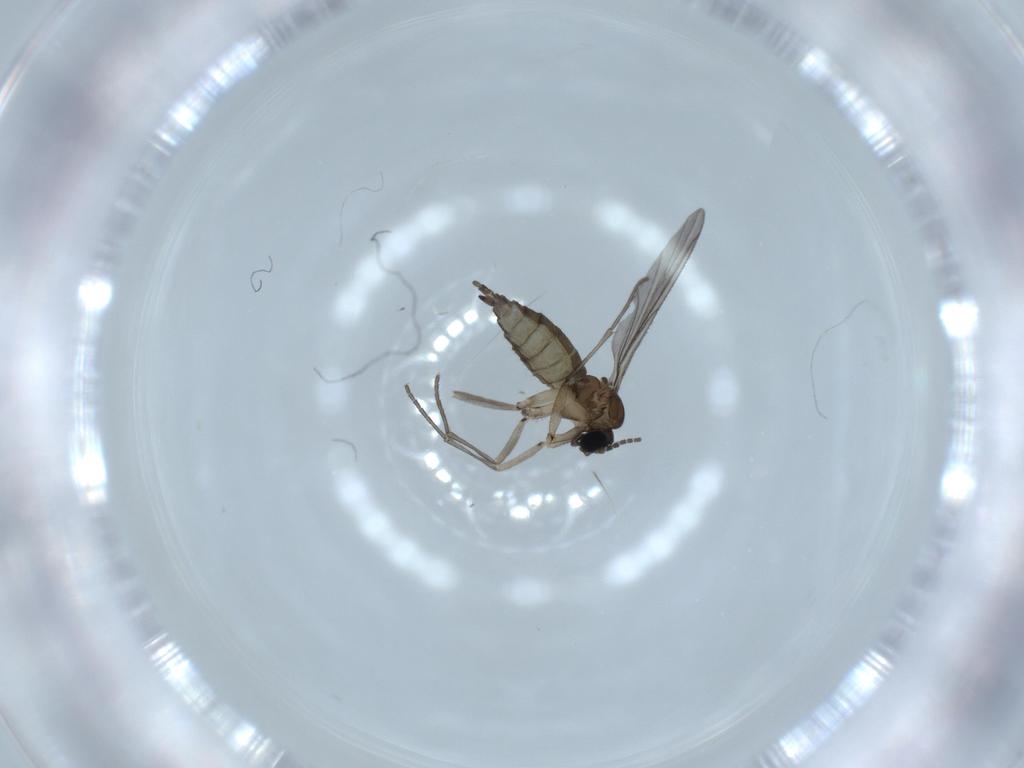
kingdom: Animalia
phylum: Arthropoda
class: Insecta
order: Diptera
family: Sciaridae
